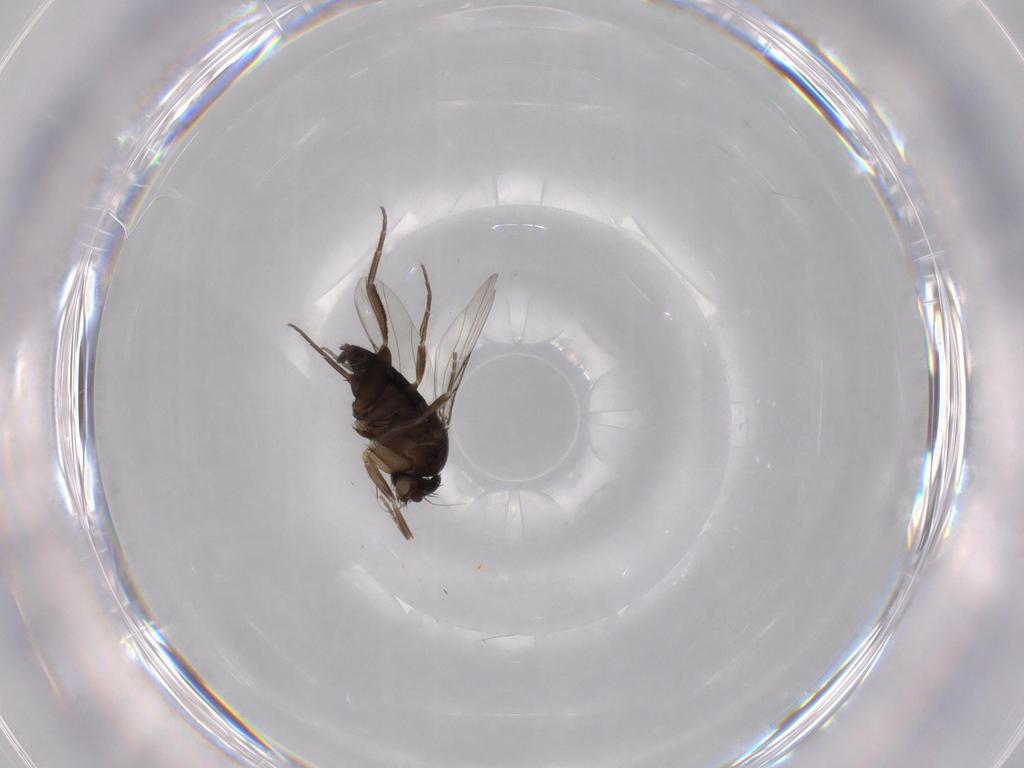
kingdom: Animalia
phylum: Arthropoda
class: Insecta
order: Diptera
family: Phoridae
